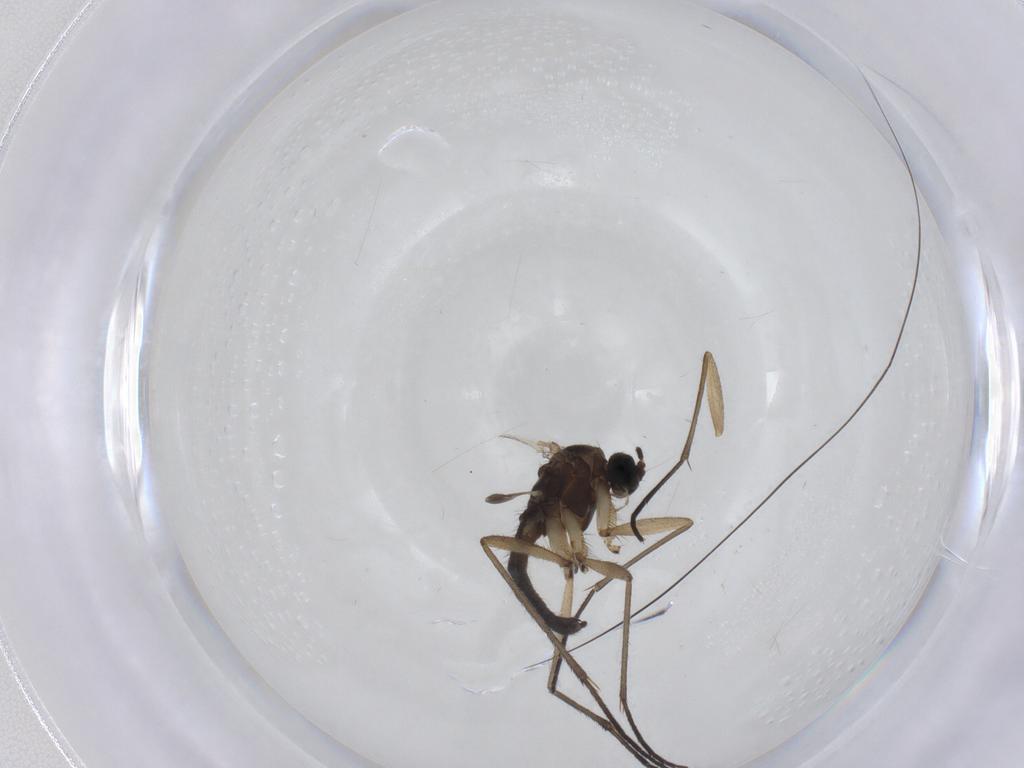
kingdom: Animalia
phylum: Arthropoda
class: Insecta
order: Diptera
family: Sciaridae
